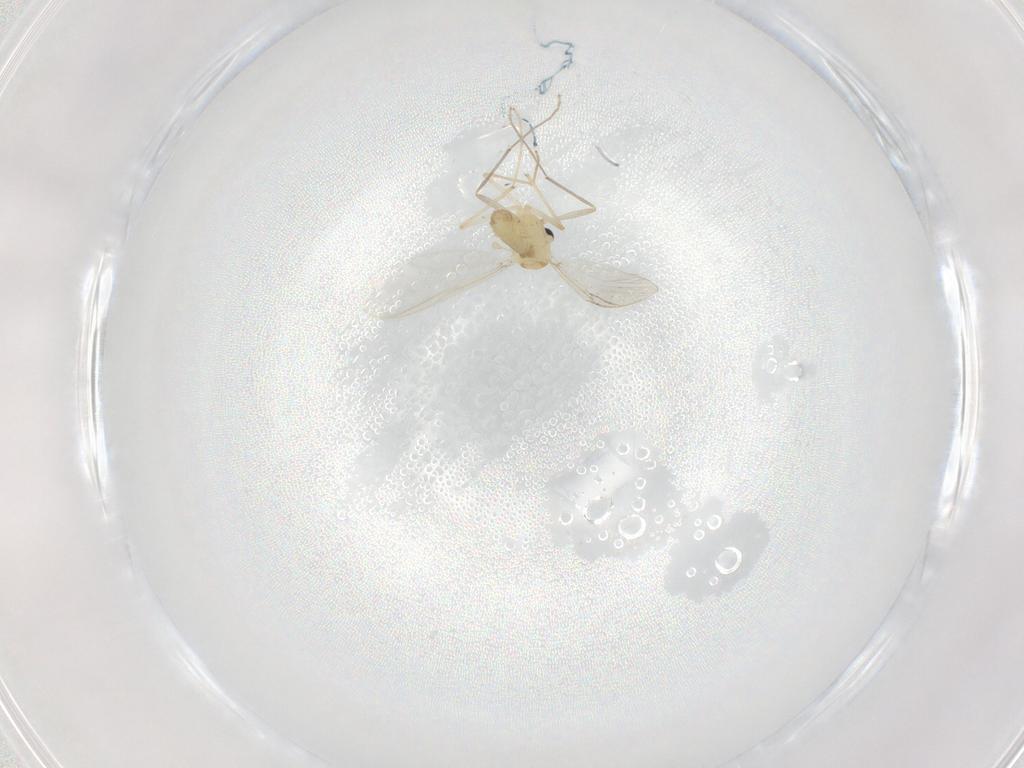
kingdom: Animalia
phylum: Arthropoda
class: Insecta
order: Diptera
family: Chironomidae
